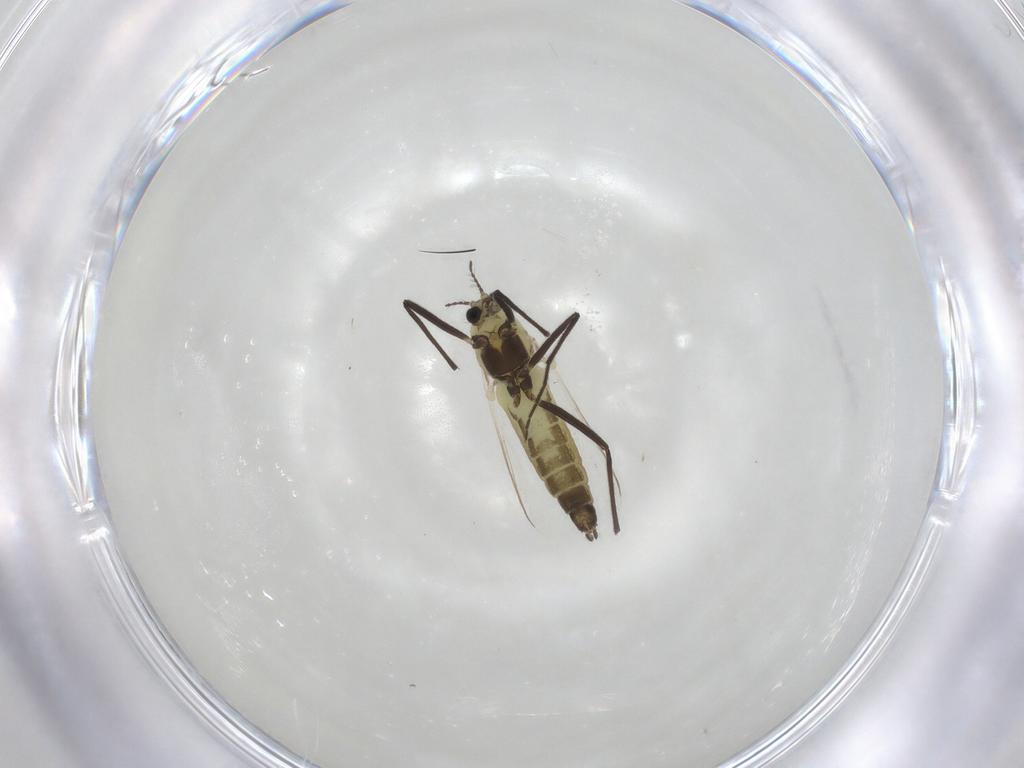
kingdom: Animalia
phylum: Arthropoda
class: Insecta
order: Diptera
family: Chironomidae
